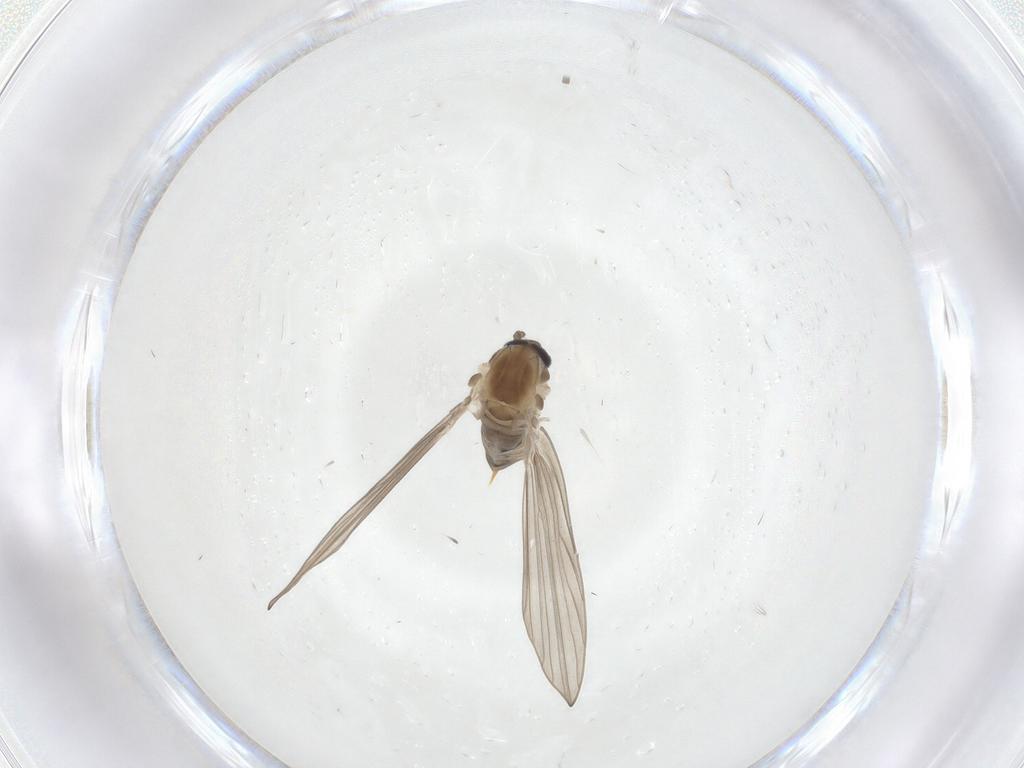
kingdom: Animalia
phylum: Arthropoda
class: Insecta
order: Diptera
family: Psychodidae
